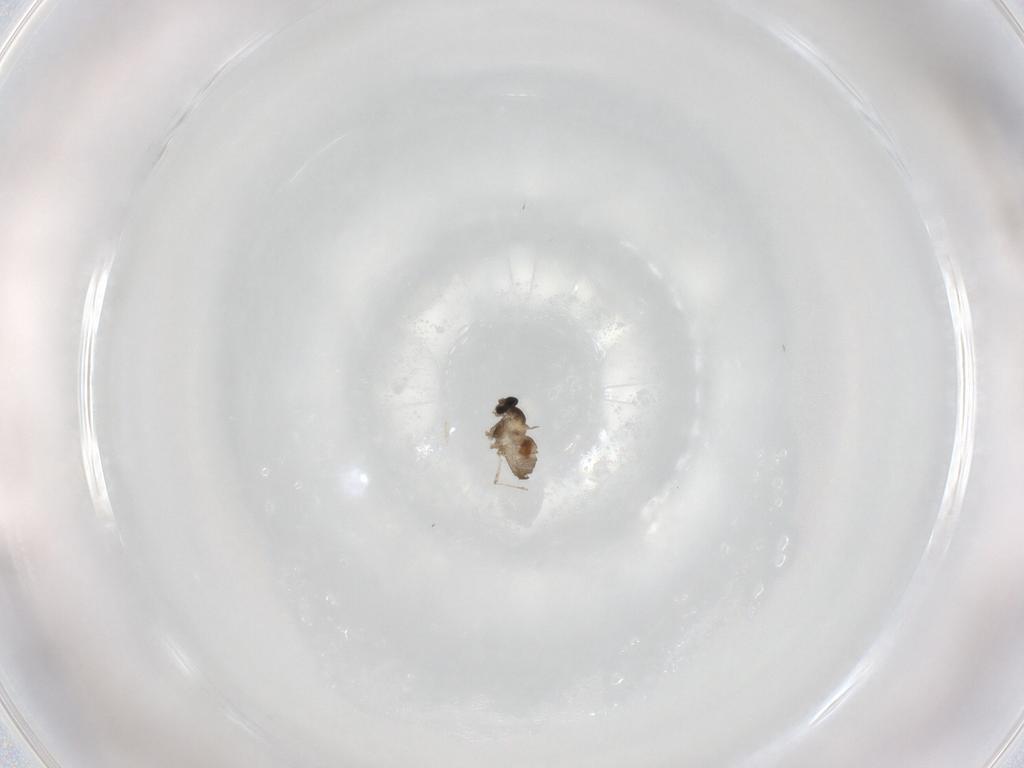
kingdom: Animalia
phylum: Arthropoda
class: Insecta
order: Diptera
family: Cecidomyiidae
